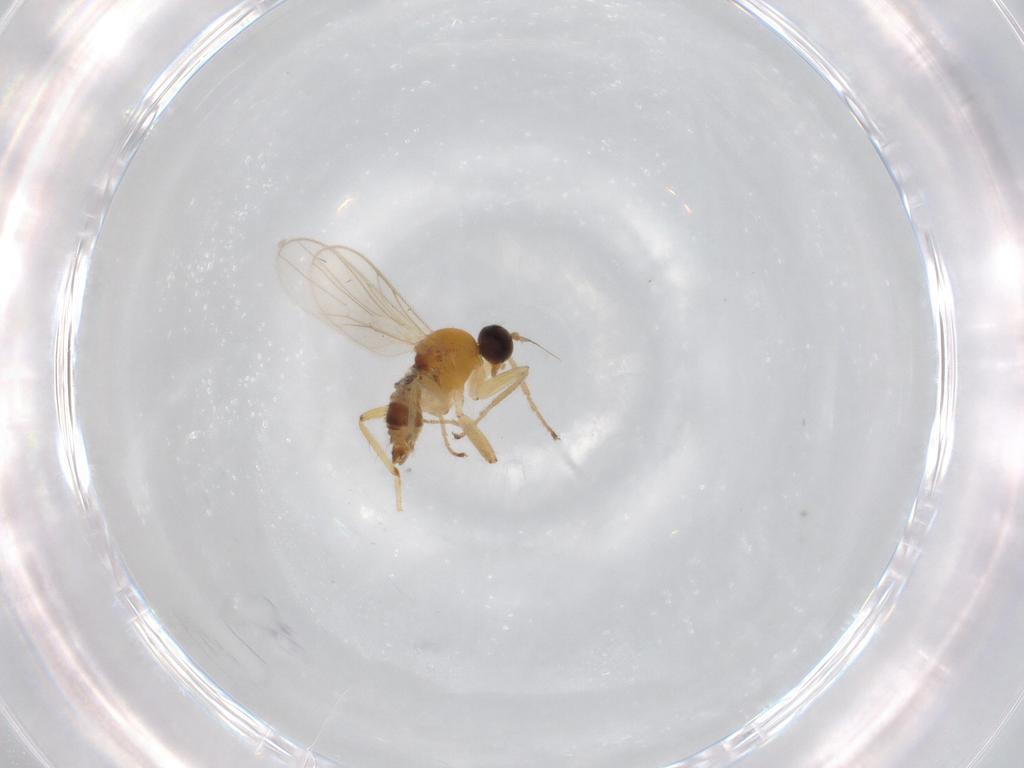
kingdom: Animalia
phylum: Arthropoda
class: Insecta
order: Diptera
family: Hybotidae
